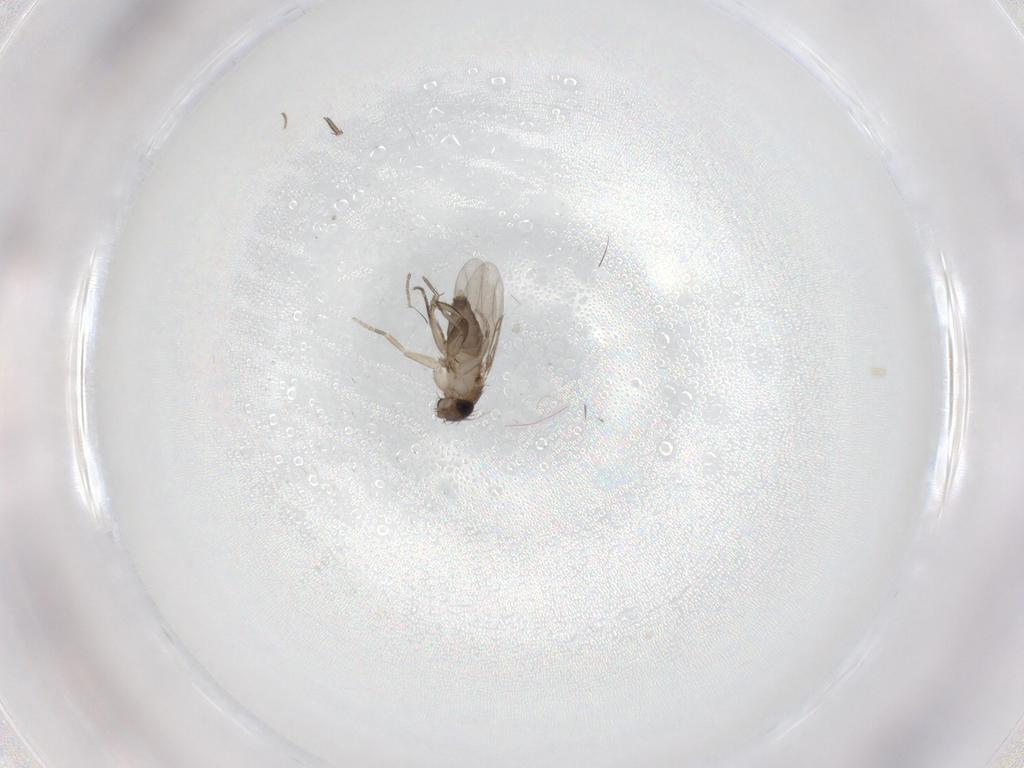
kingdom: Animalia
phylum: Arthropoda
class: Insecta
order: Diptera
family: Phoridae
